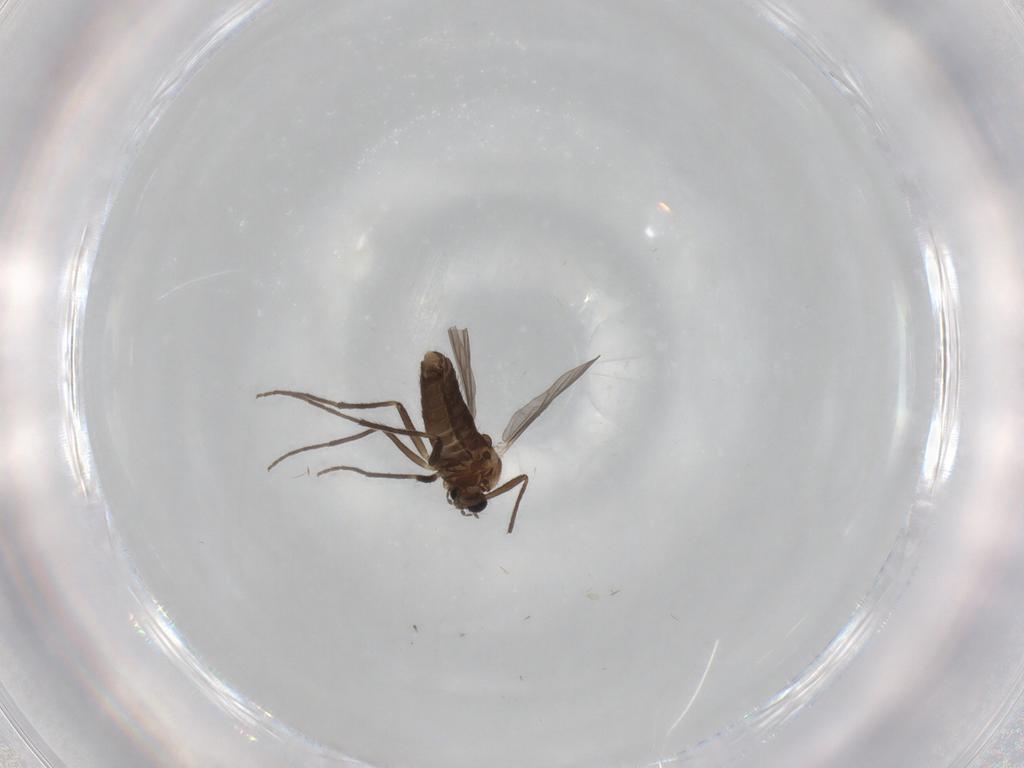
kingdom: Animalia
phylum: Arthropoda
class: Insecta
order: Diptera
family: Chironomidae
